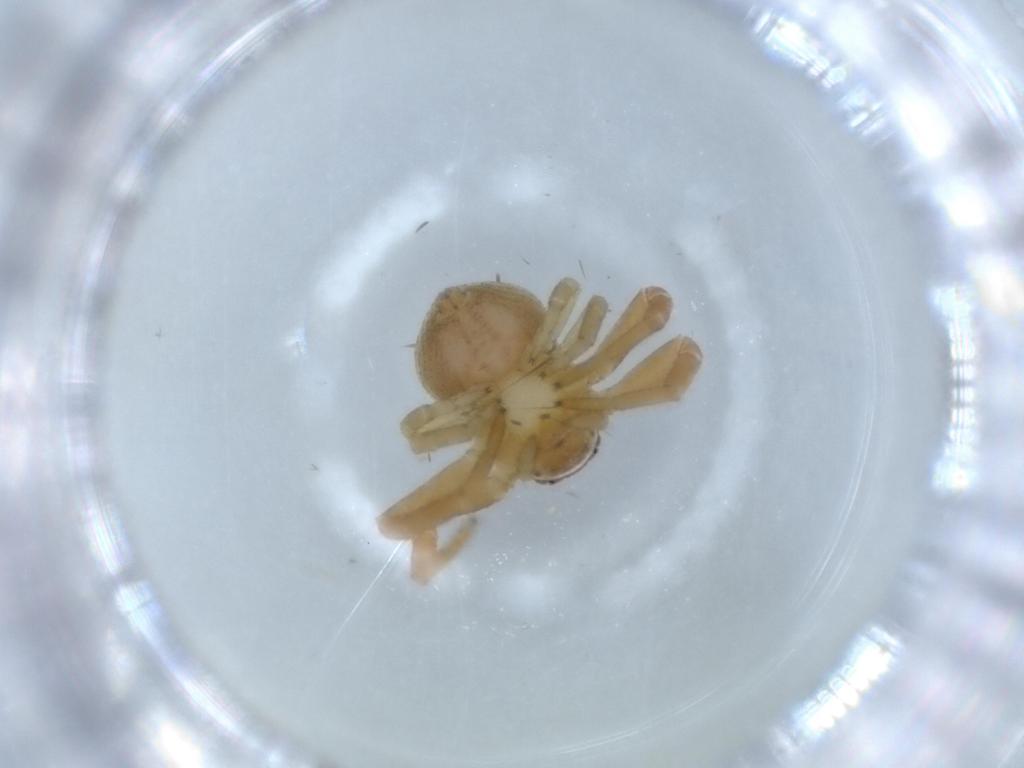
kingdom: Animalia
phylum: Arthropoda
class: Arachnida
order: Araneae
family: Thomisidae
